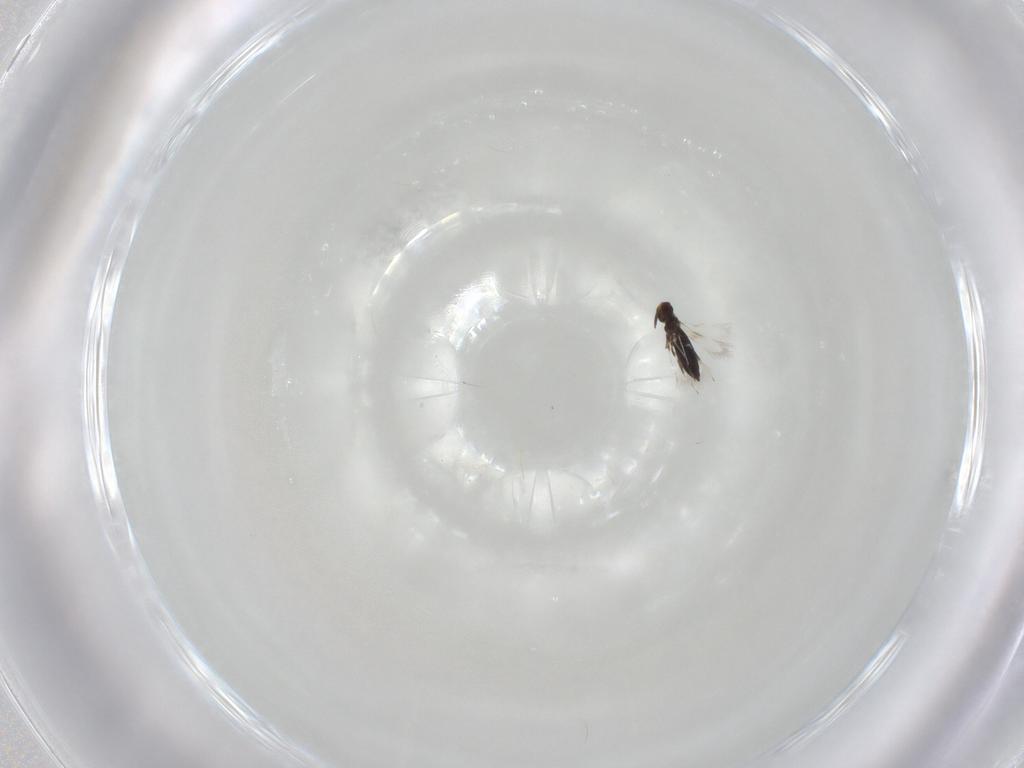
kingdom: Animalia
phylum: Arthropoda
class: Insecta
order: Hymenoptera
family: Signiphoridae
